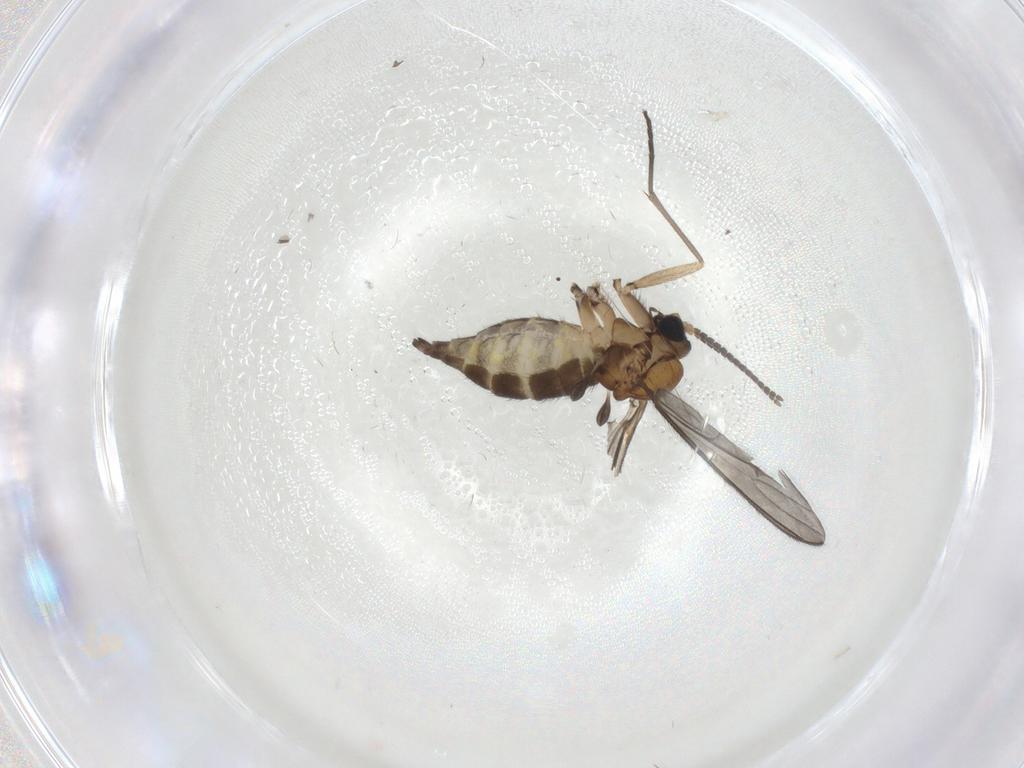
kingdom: Animalia
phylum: Arthropoda
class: Insecta
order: Diptera
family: Sciaridae
